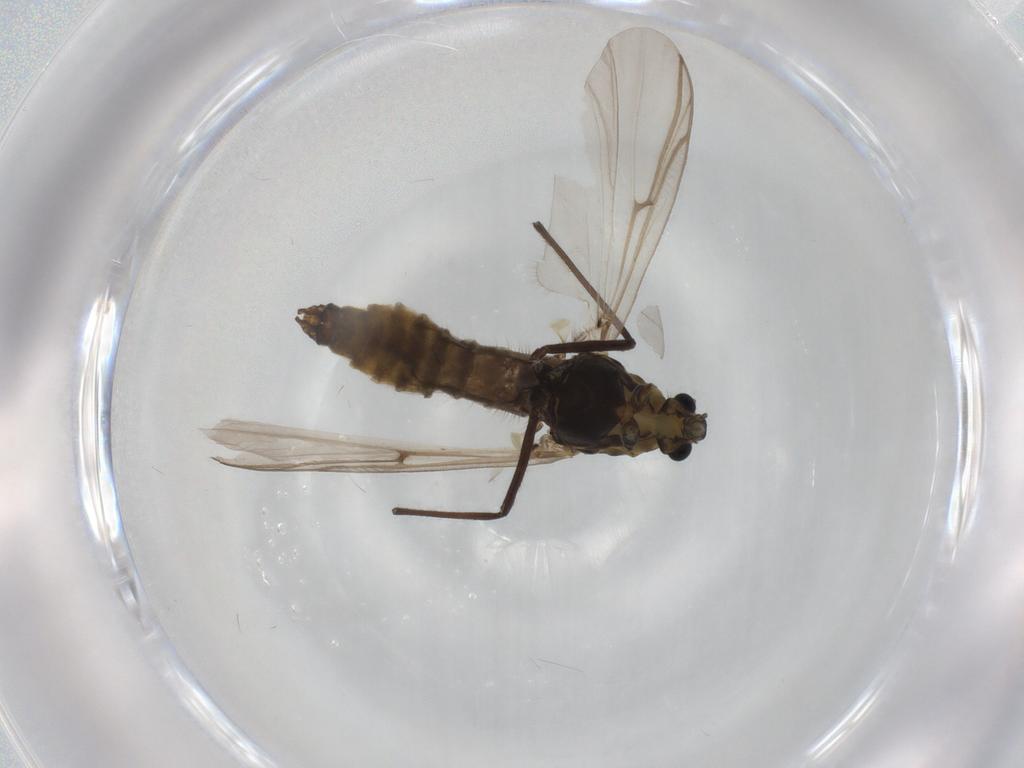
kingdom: Animalia
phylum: Arthropoda
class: Insecta
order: Diptera
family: Chironomidae
